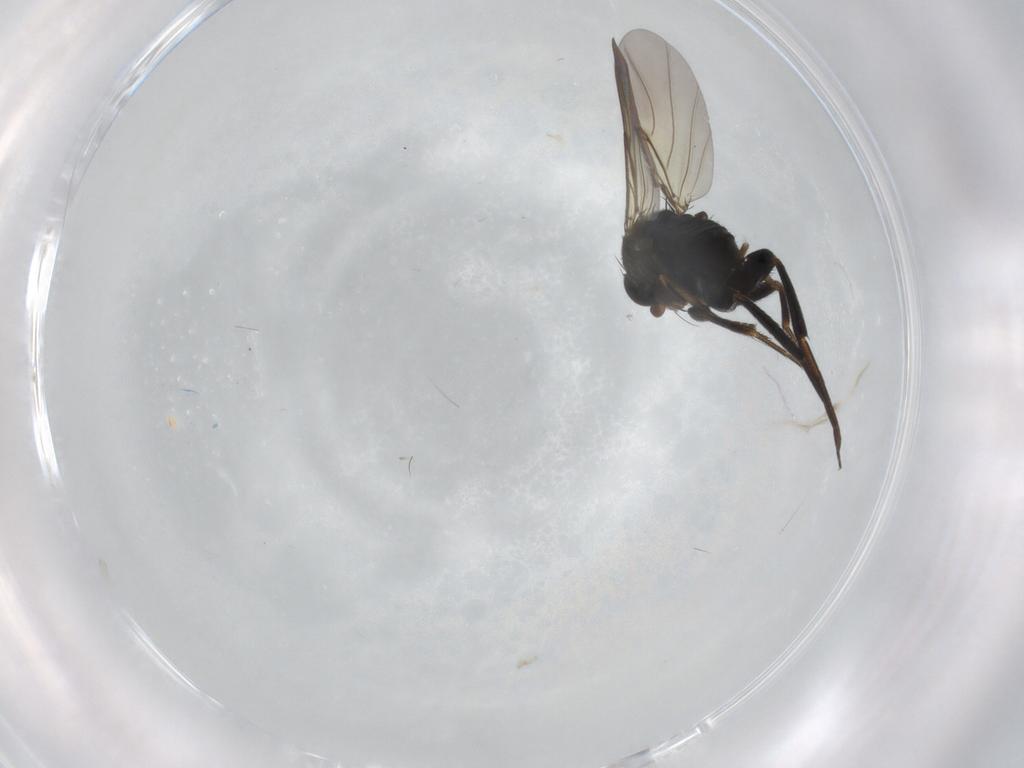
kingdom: Animalia
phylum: Arthropoda
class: Insecta
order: Diptera
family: Phoridae
